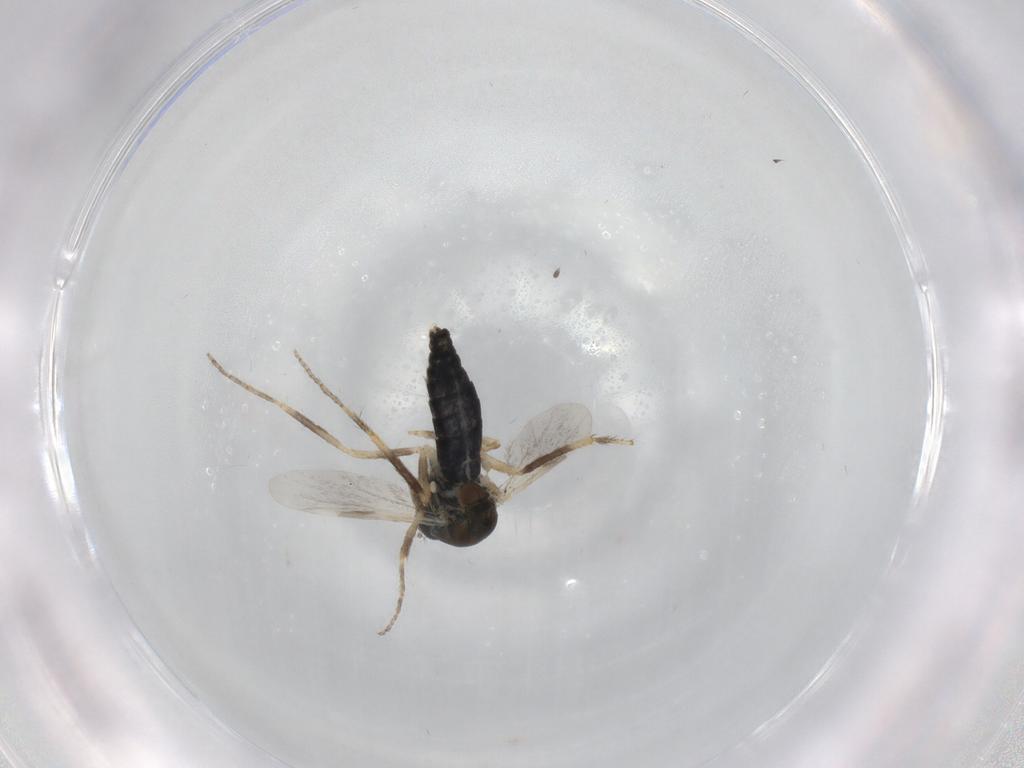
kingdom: Animalia
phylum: Arthropoda
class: Insecta
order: Diptera
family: Ceratopogonidae
